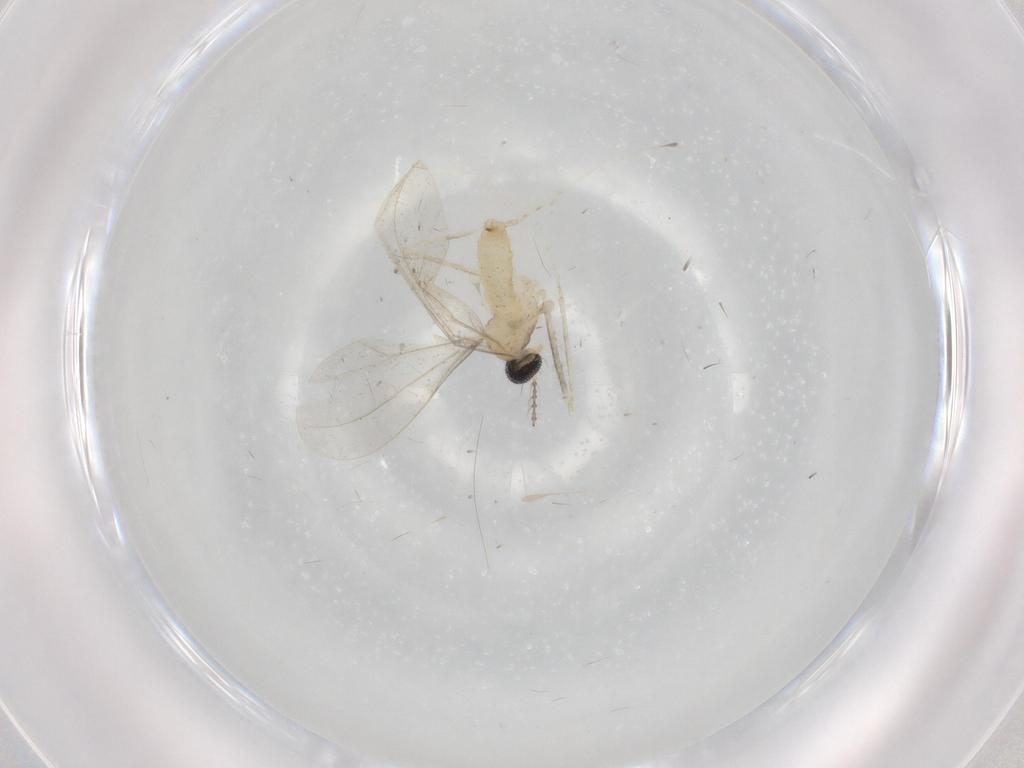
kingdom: Animalia
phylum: Arthropoda
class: Insecta
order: Diptera
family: Cecidomyiidae
